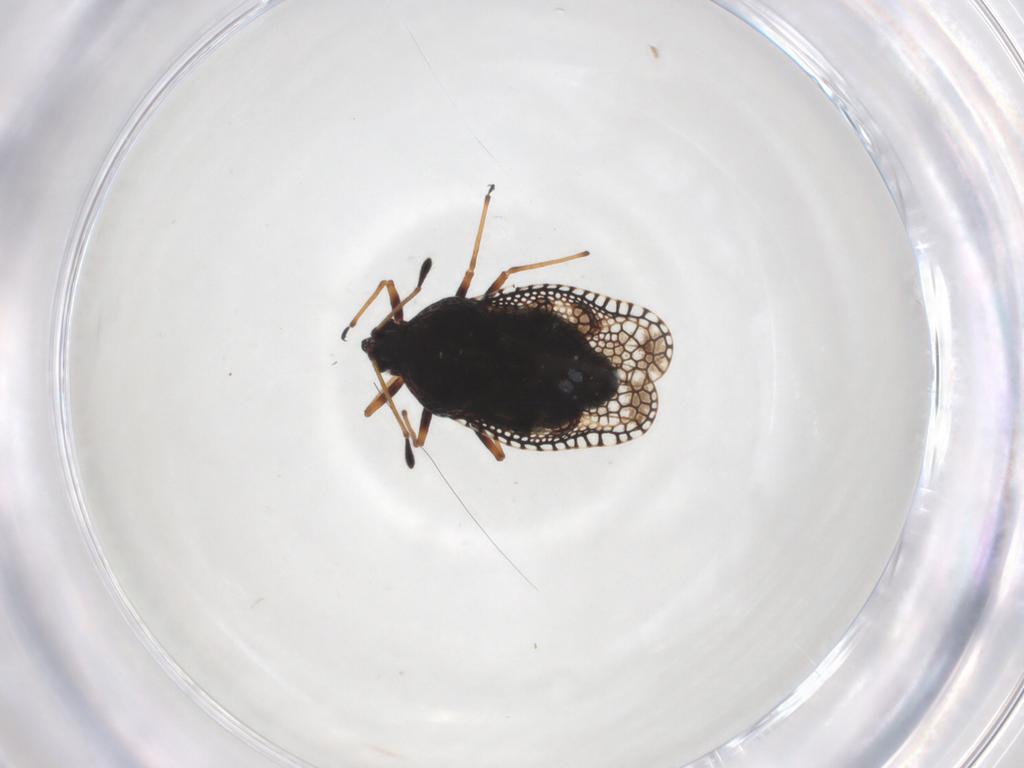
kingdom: Animalia
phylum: Arthropoda
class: Insecta
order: Hemiptera
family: Tingidae
